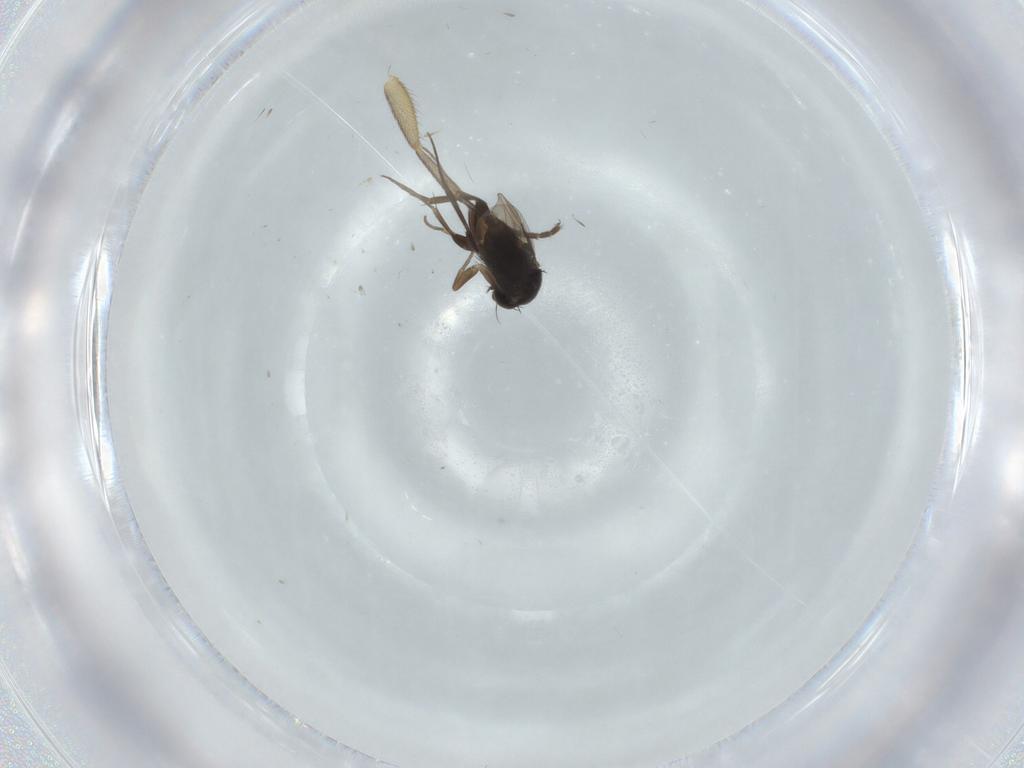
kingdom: Animalia
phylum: Arthropoda
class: Insecta
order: Diptera
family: Mycetophilidae
